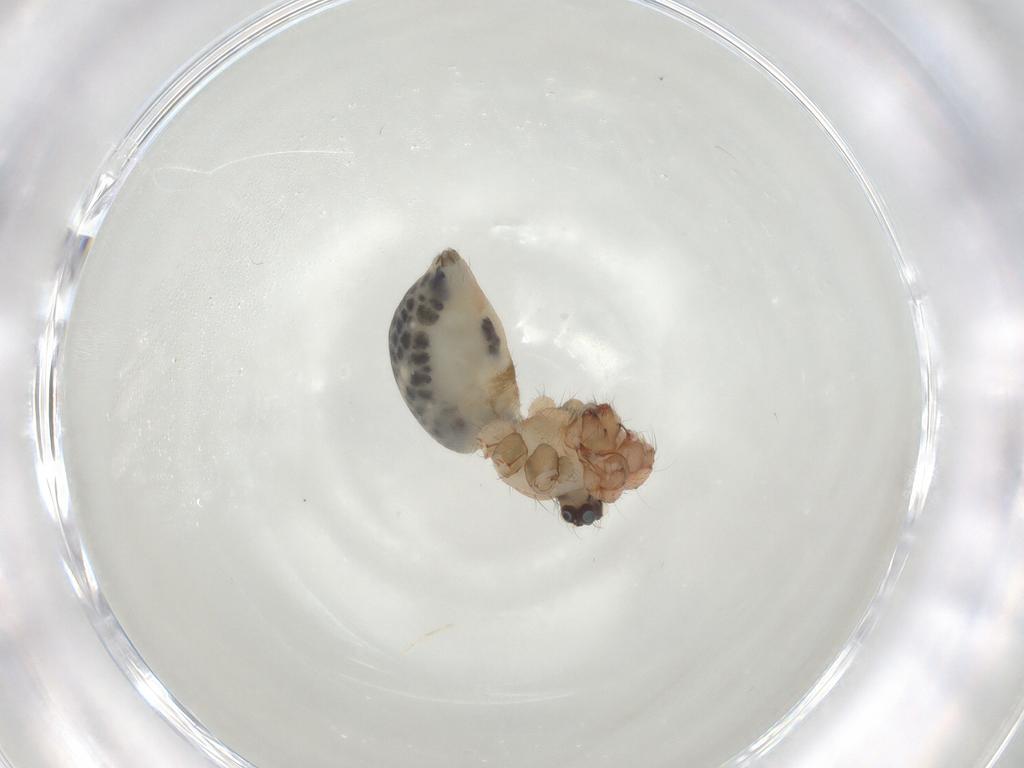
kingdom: Animalia
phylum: Arthropoda
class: Arachnida
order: Araneae
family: Pholcidae
